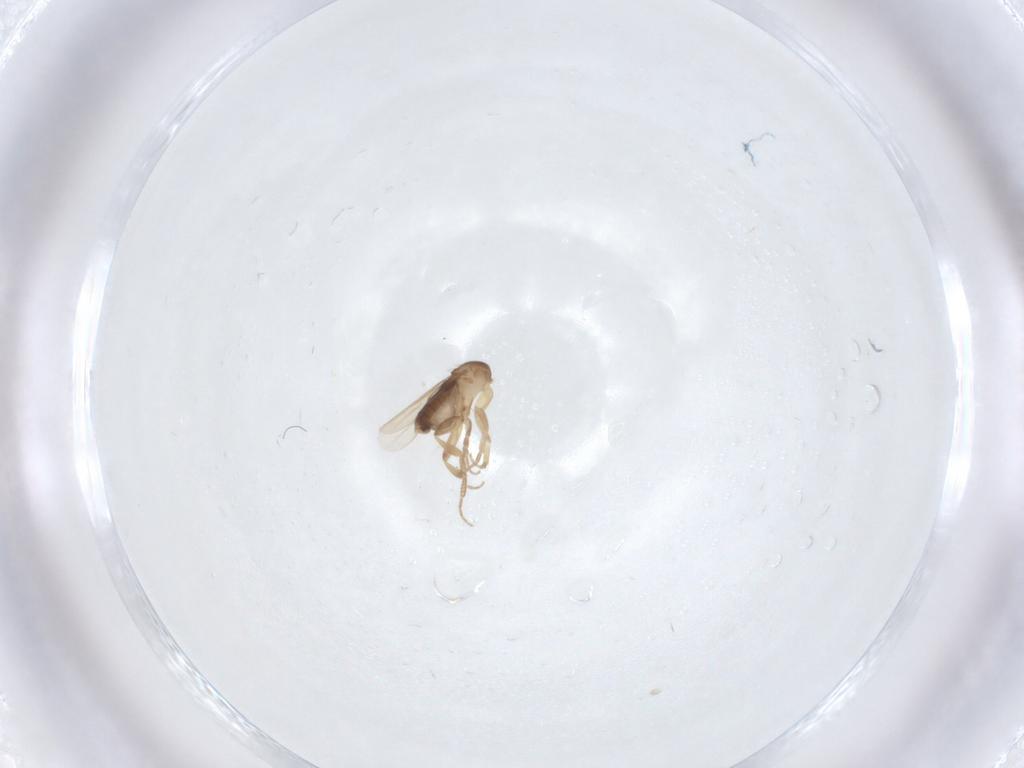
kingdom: Animalia
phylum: Arthropoda
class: Insecta
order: Diptera
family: Phoridae
